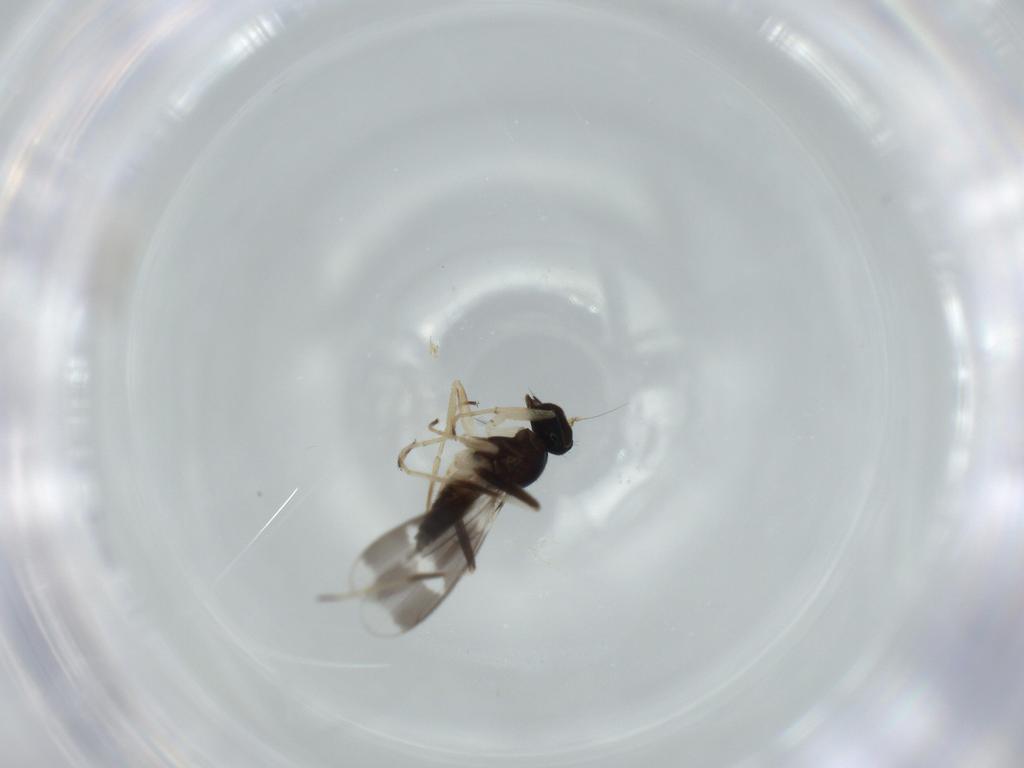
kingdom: Animalia
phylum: Arthropoda
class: Insecta
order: Diptera
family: Hybotidae
